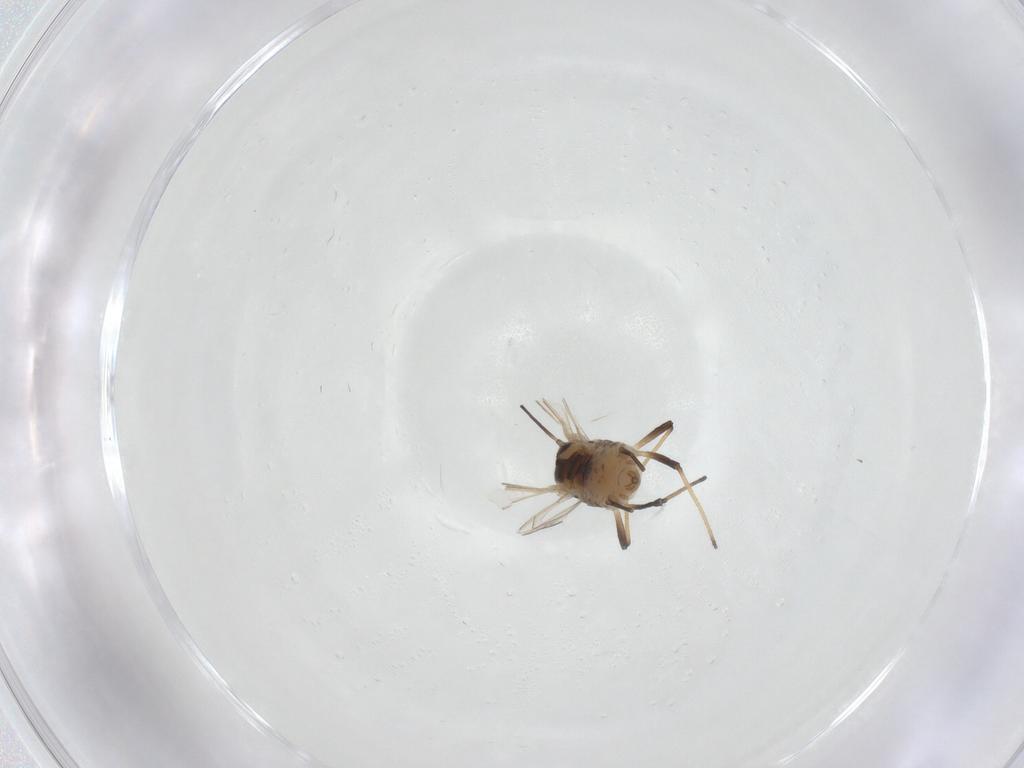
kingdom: Animalia
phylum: Arthropoda
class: Insecta
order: Hemiptera
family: Aphididae
